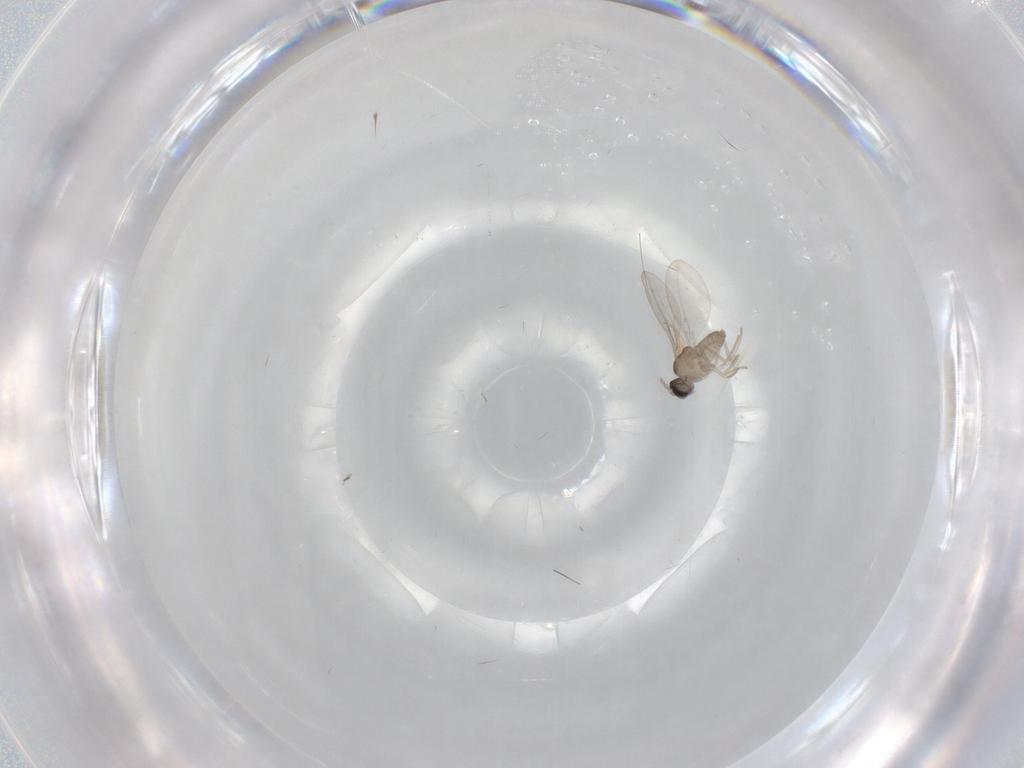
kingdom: Animalia
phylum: Arthropoda
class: Insecta
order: Diptera
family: Cecidomyiidae
